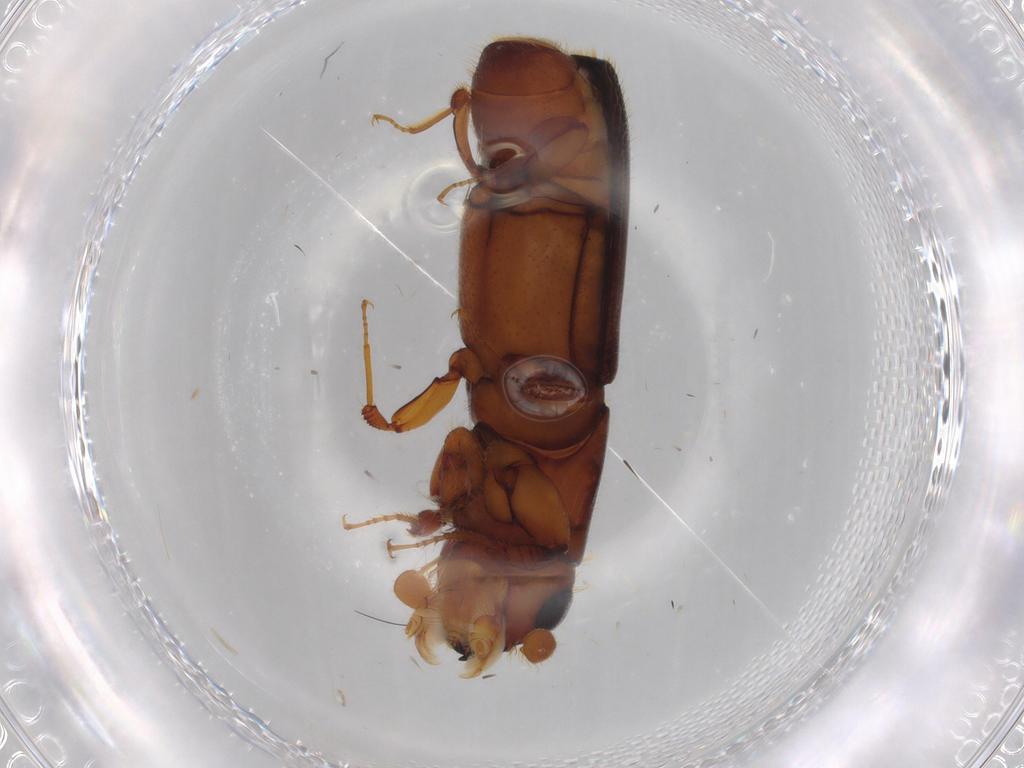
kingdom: Animalia
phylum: Arthropoda
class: Insecta
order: Coleoptera
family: Curculionidae
